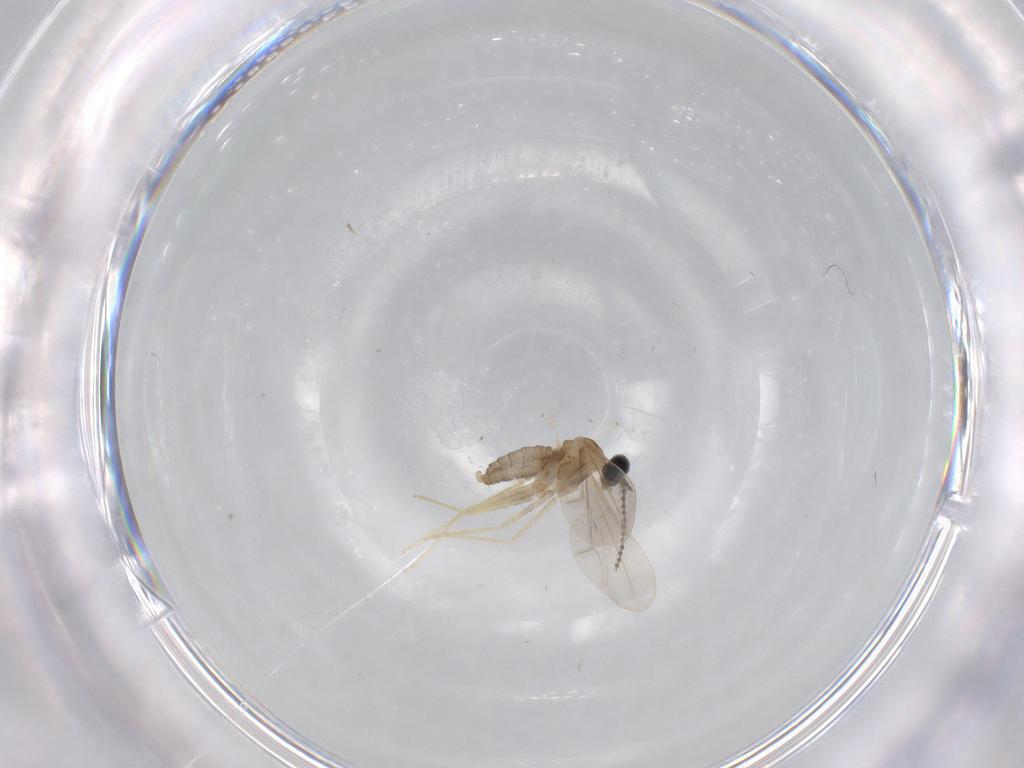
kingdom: Animalia
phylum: Arthropoda
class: Insecta
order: Diptera
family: Cecidomyiidae
